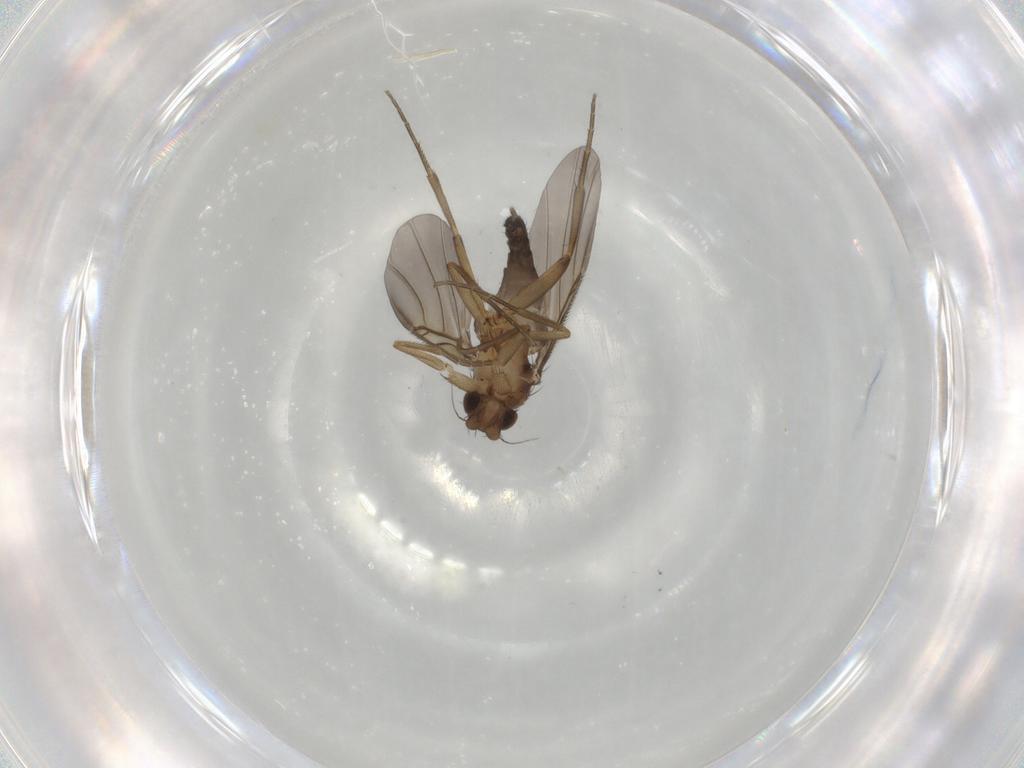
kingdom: Animalia
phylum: Arthropoda
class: Insecta
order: Diptera
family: Phoridae
